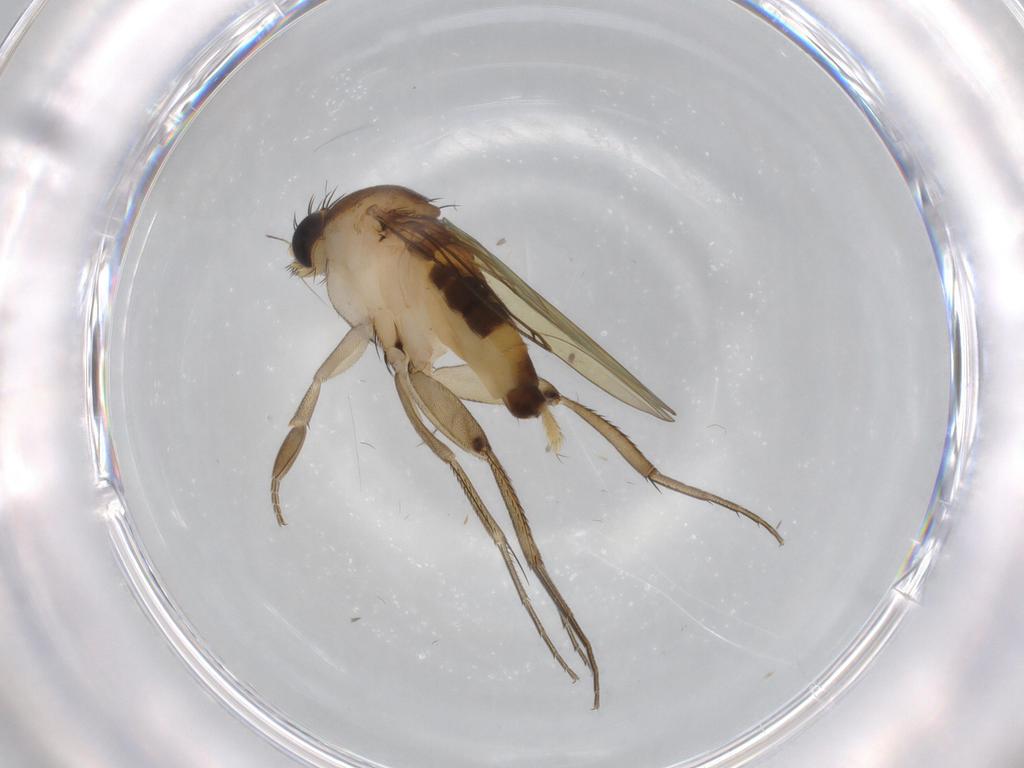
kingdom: Animalia
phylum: Arthropoda
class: Insecta
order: Diptera
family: Phoridae
